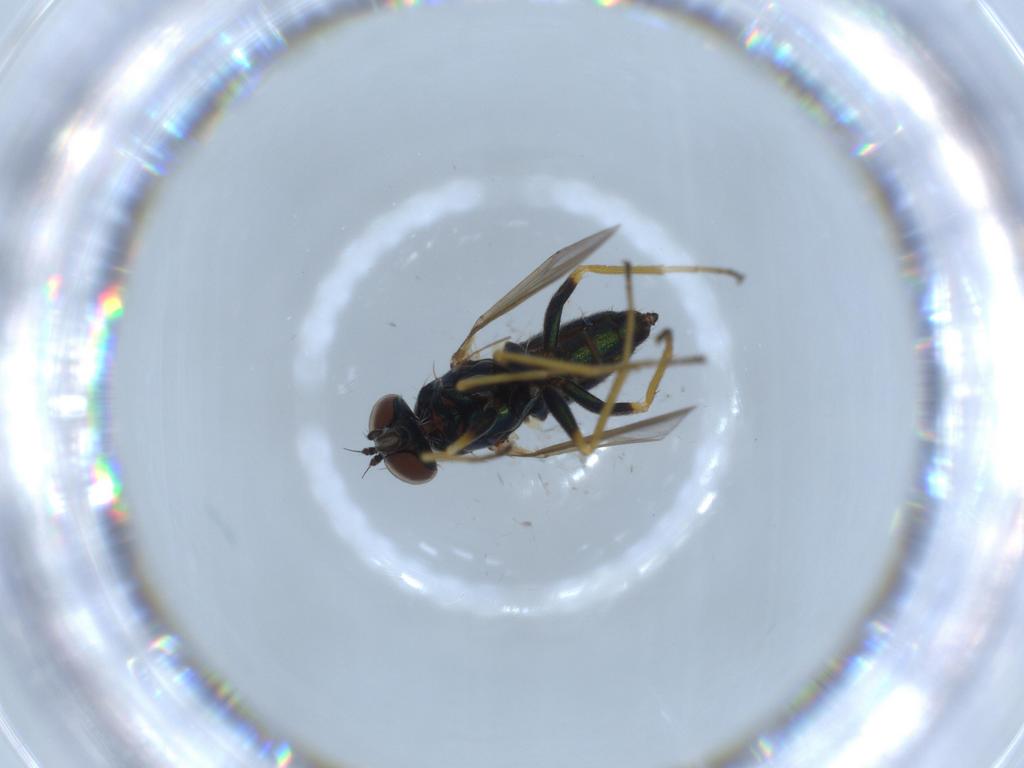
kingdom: Animalia
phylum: Arthropoda
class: Insecta
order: Diptera
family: Dolichopodidae
